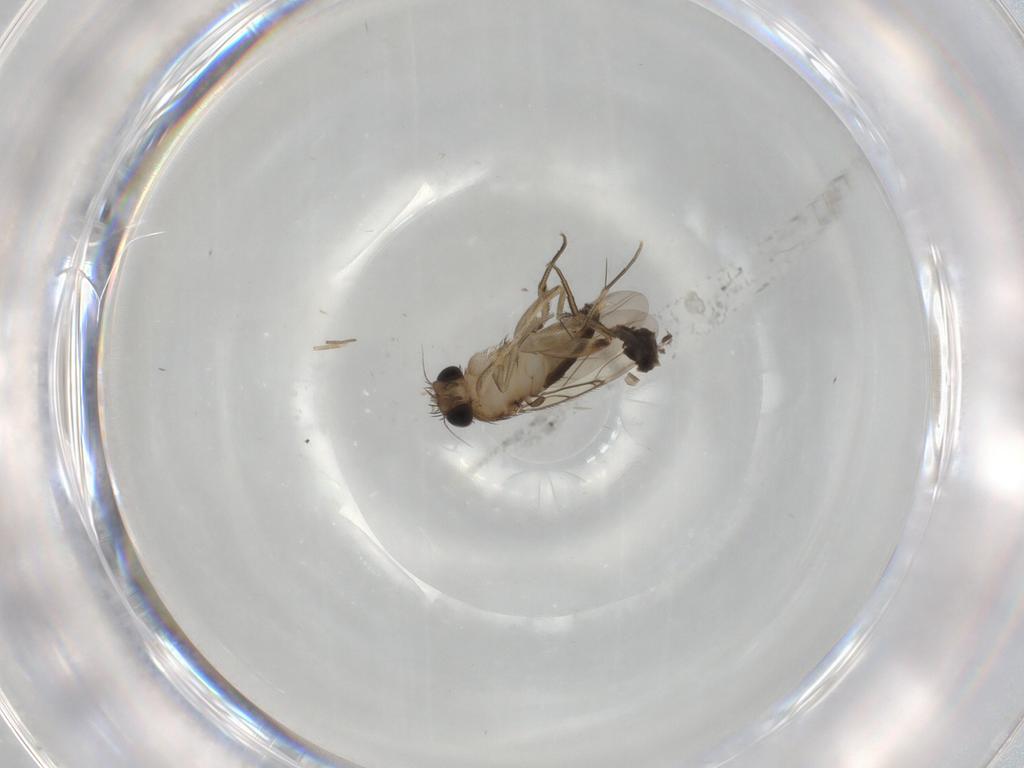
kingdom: Animalia
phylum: Arthropoda
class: Insecta
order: Diptera
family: Phoridae
